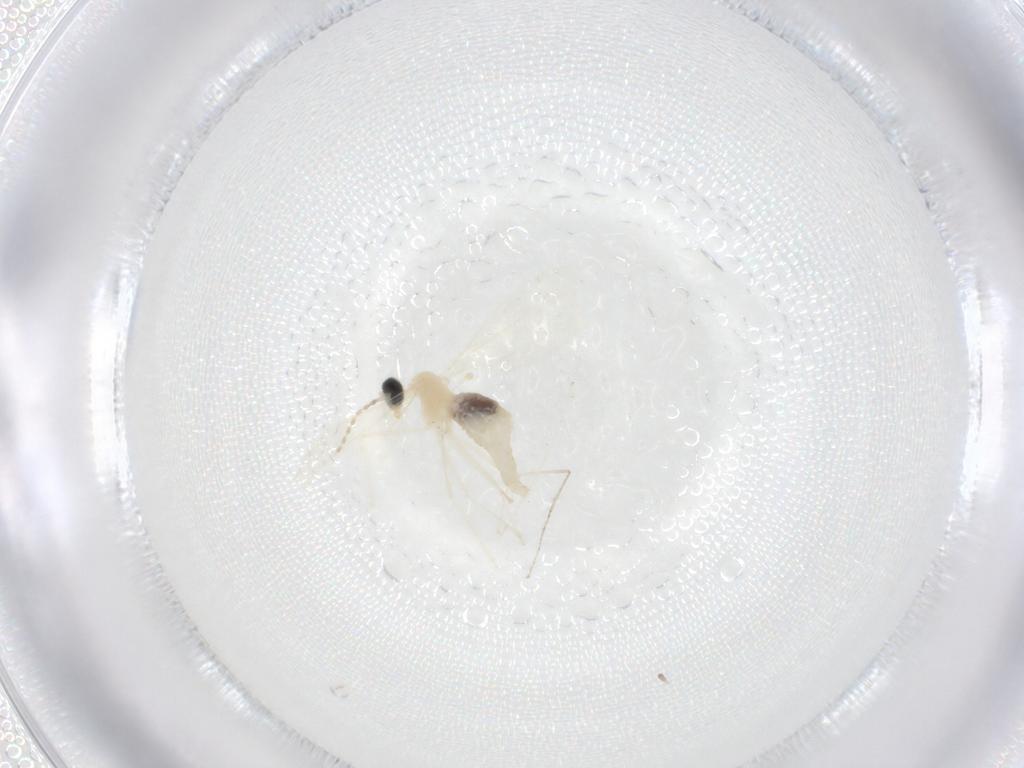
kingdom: Animalia
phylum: Arthropoda
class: Insecta
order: Diptera
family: Cecidomyiidae
